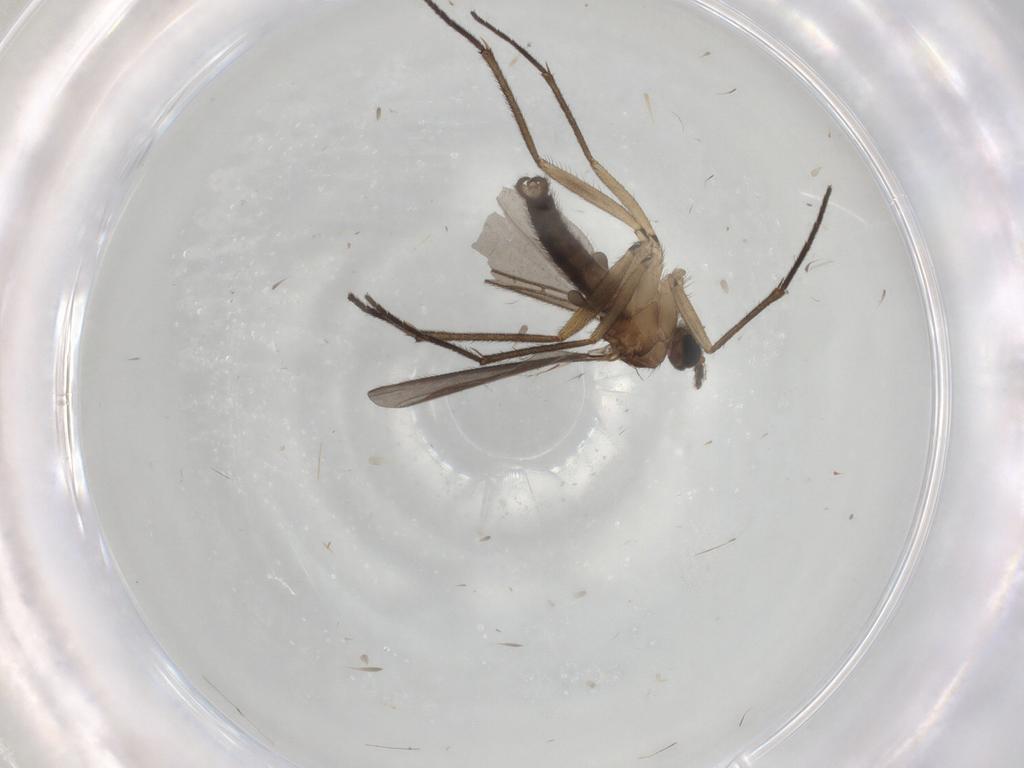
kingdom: Animalia
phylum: Arthropoda
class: Insecta
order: Diptera
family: Sciaridae
